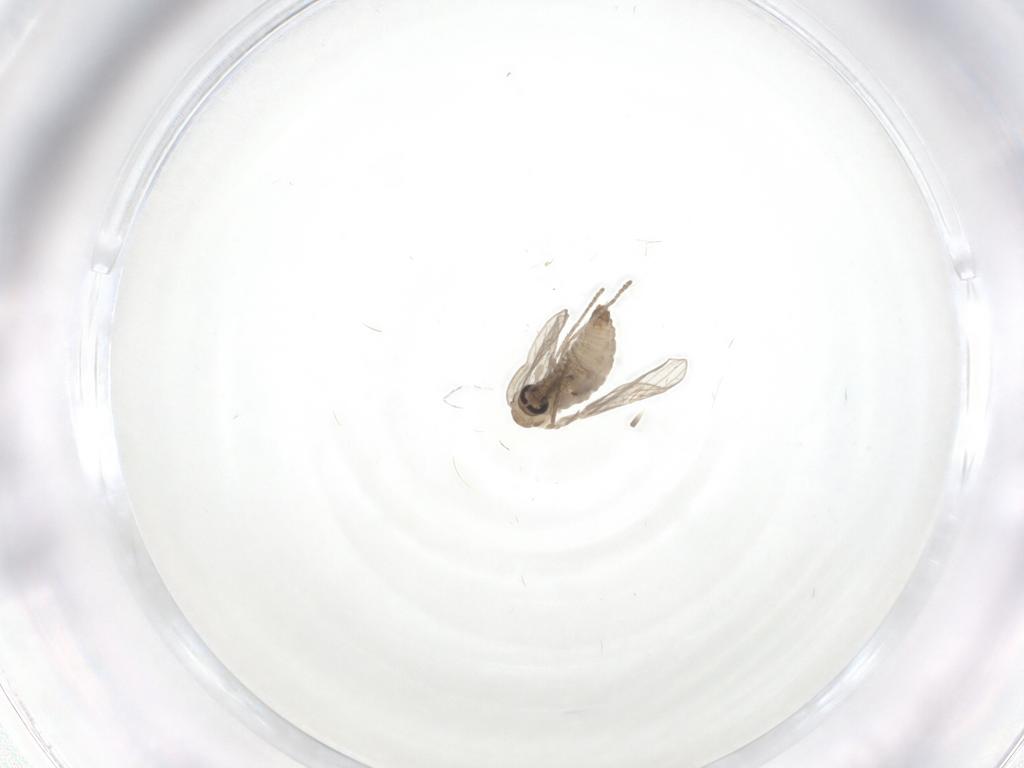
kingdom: Animalia
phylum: Arthropoda
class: Insecta
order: Diptera
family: Psychodidae
